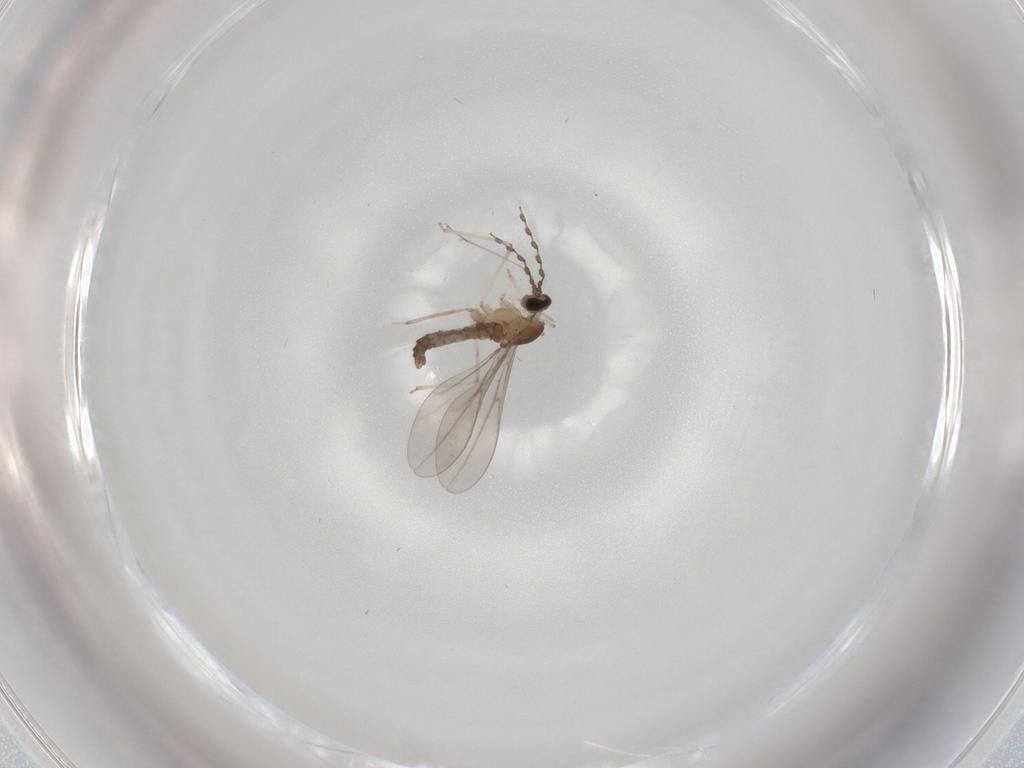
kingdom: Animalia
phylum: Arthropoda
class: Insecta
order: Diptera
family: Cecidomyiidae
